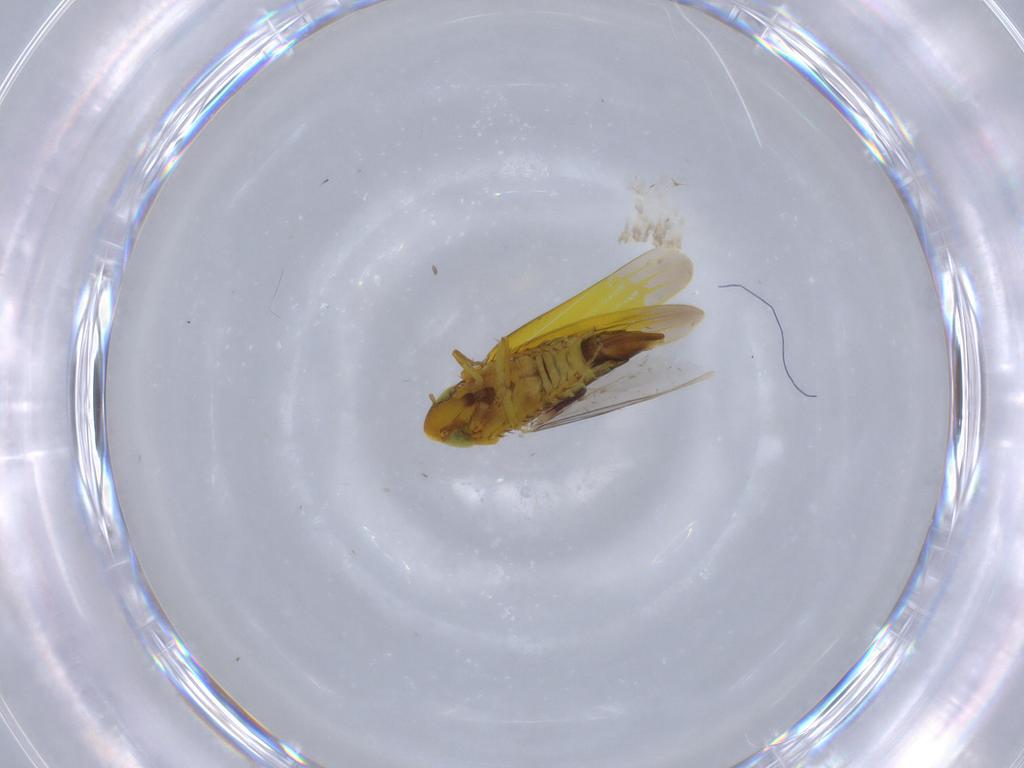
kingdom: Animalia
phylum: Arthropoda
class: Insecta
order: Hemiptera
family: Cicadellidae
